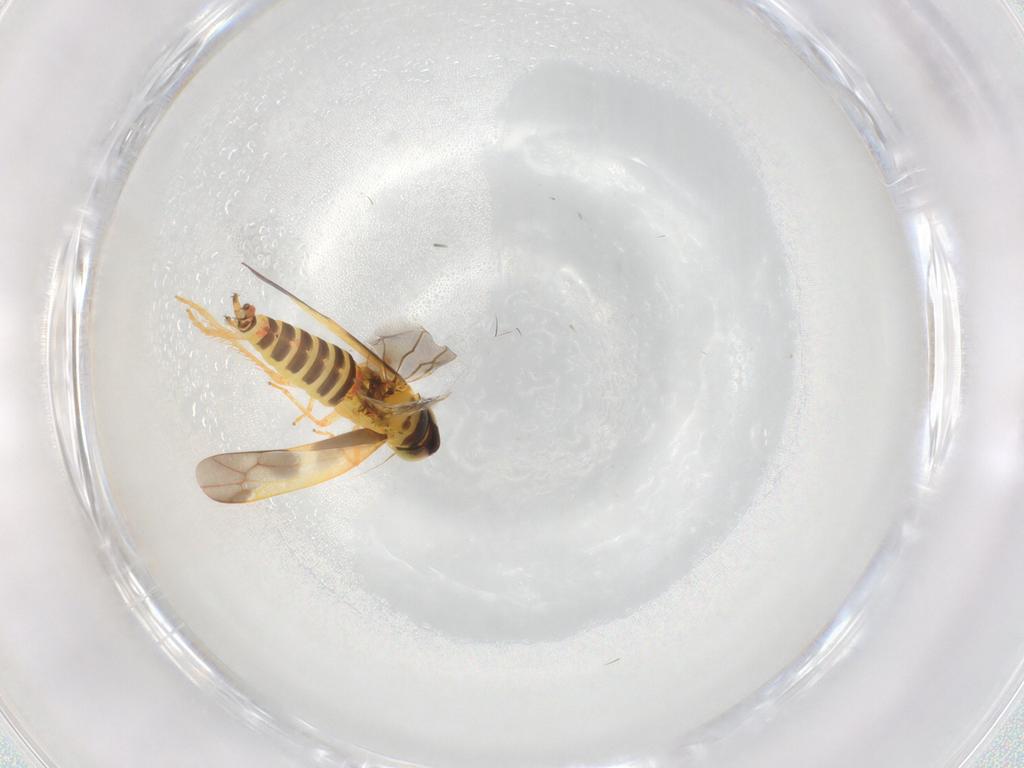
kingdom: Animalia
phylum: Arthropoda
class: Insecta
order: Hemiptera
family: Cicadellidae
